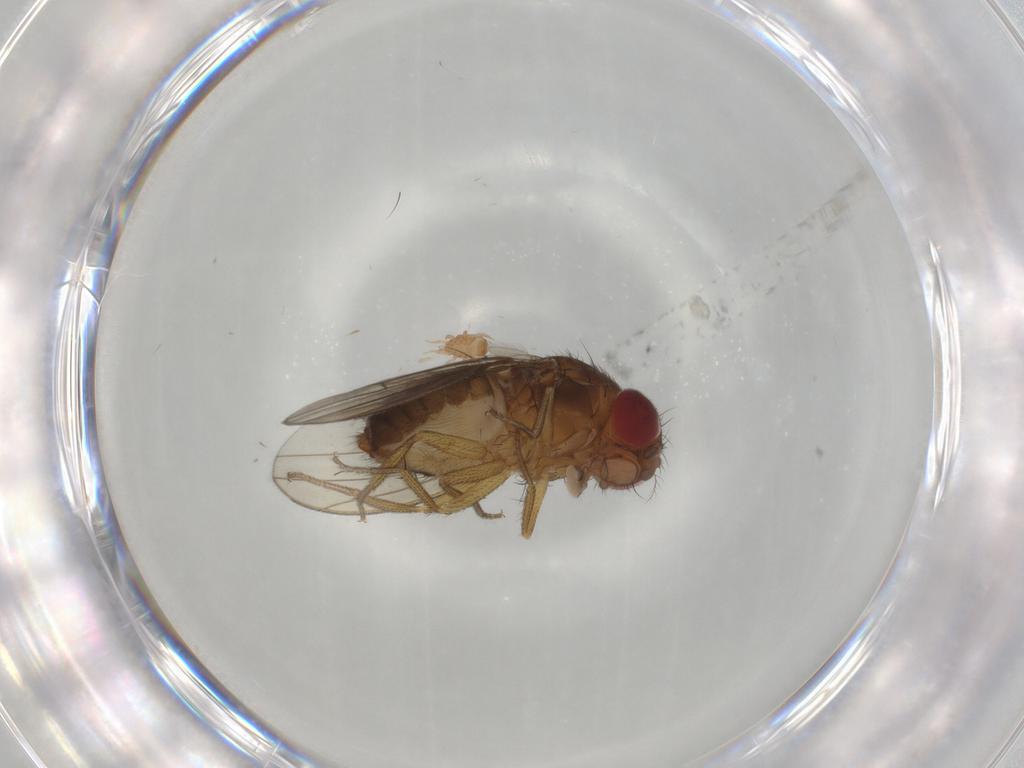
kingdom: Animalia
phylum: Arthropoda
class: Insecta
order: Diptera
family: Drosophilidae
